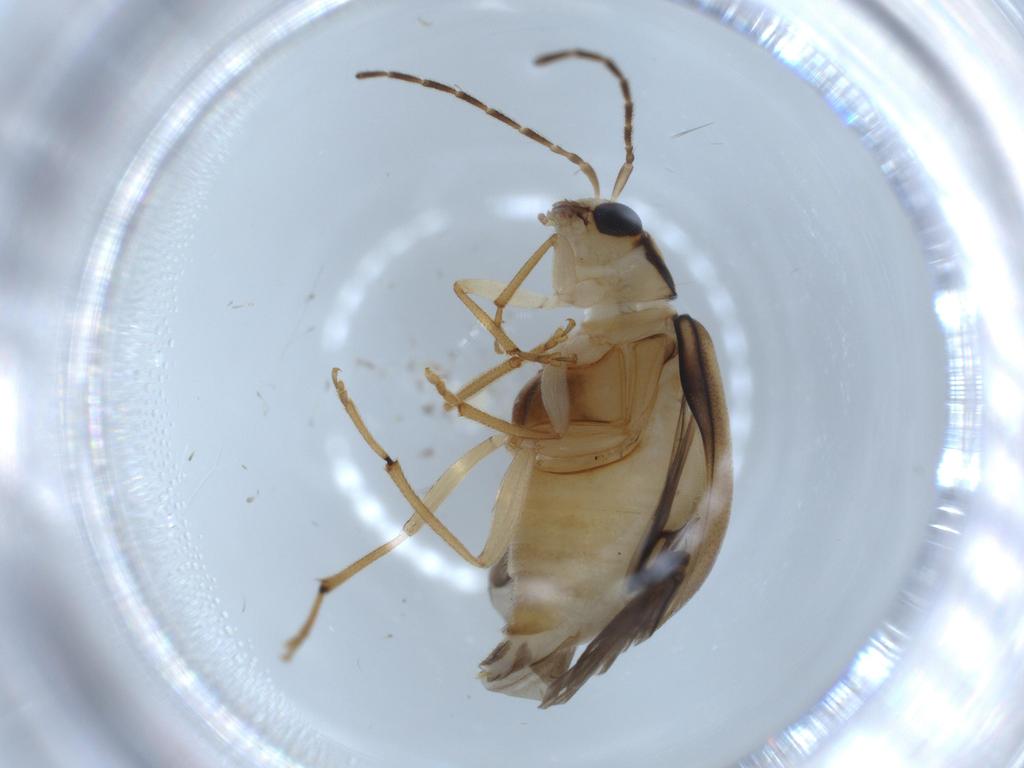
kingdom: Animalia
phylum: Arthropoda
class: Insecta
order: Coleoptera
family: Chrysomelidae
